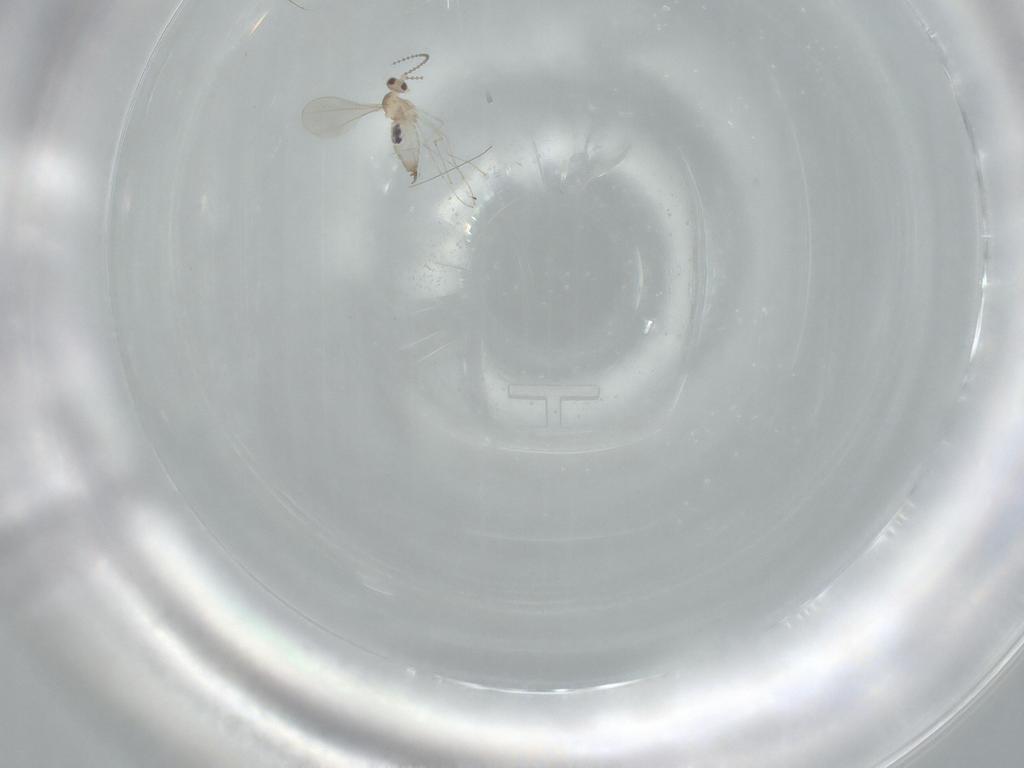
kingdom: Animalia
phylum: Arthropoda
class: Insecta
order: Diptera
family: Cecidomyiidae
